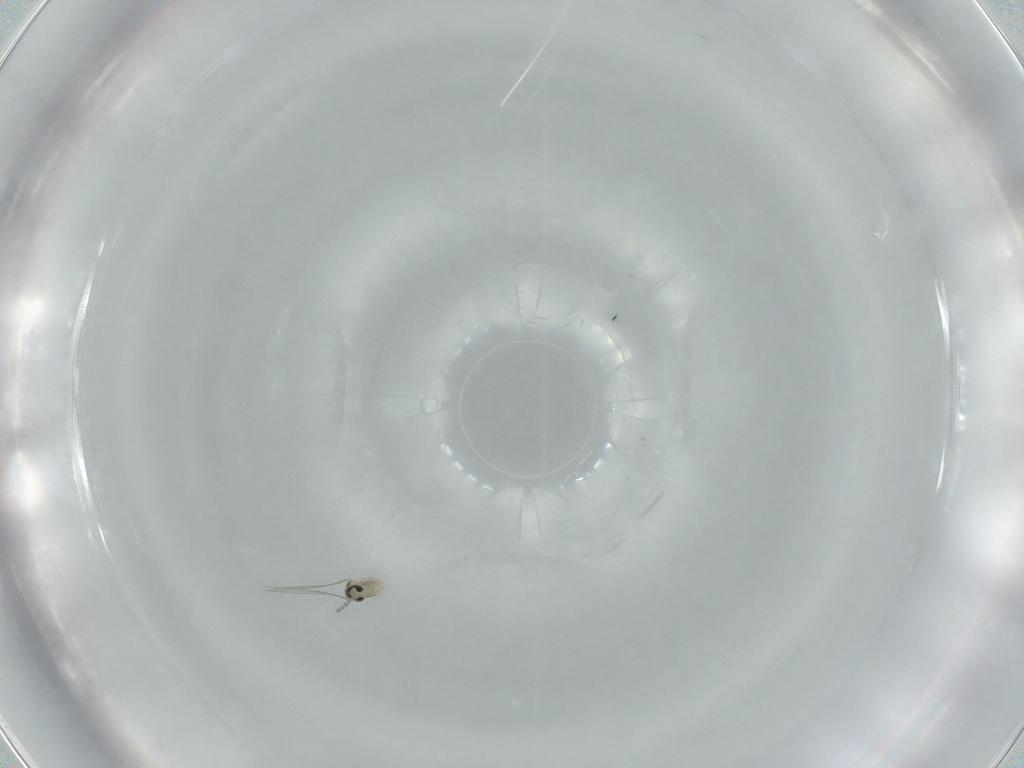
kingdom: Animalia
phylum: Arthropoda
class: Insecta
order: Diptera
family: Cecidomyiidae
